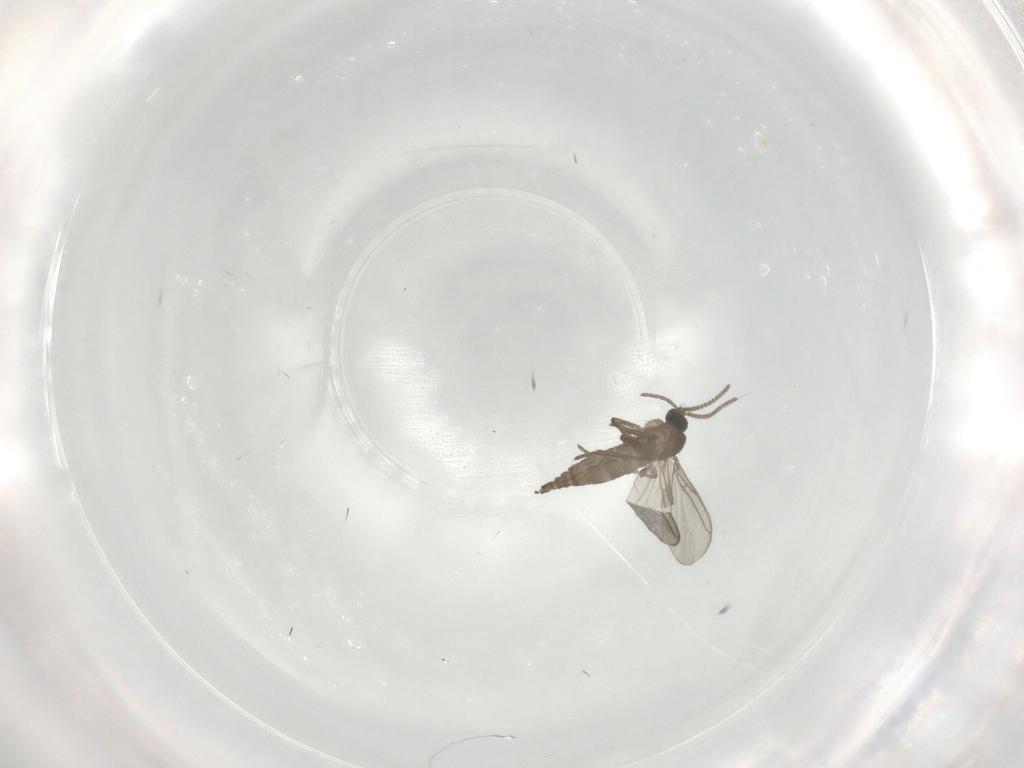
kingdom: Animalia
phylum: Arthropoda
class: Insecta
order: Diptera
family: Sciaridae
